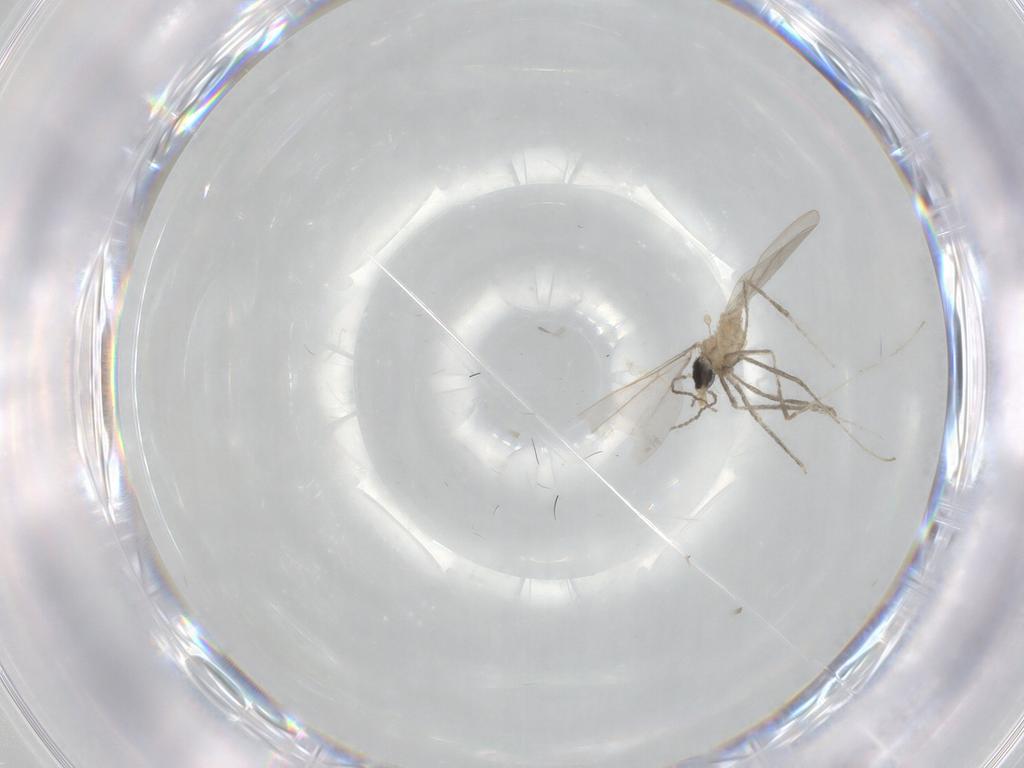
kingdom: Animalia
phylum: Arthropoda
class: Insecta
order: Diptera
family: Cecidomyiidae
